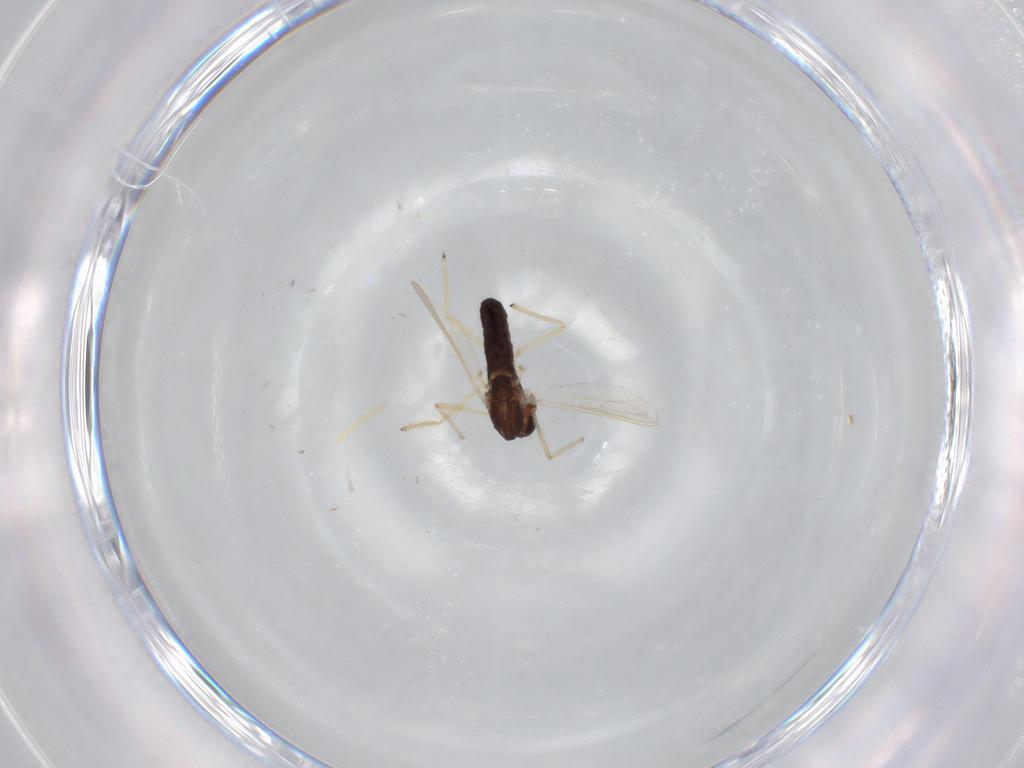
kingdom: Animalia
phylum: Arthropoda
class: Insecta
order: Diptera
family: Chironomidae
